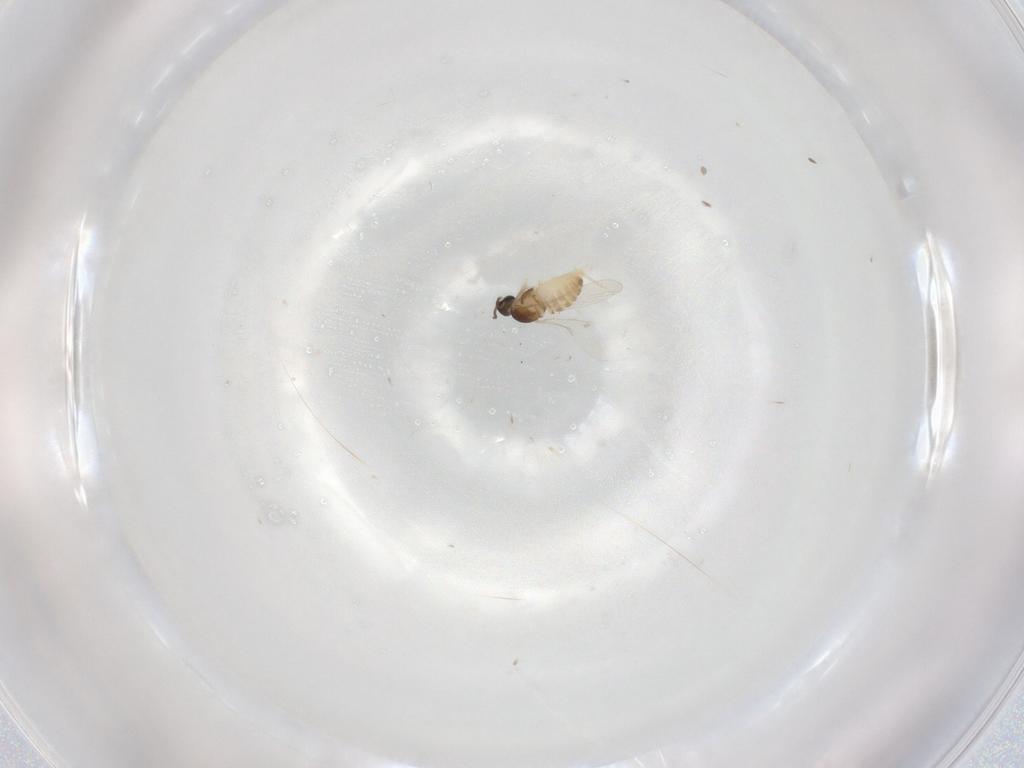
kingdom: Animalia
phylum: Arthropoda
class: Insecta
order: Diptera
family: Cecidomyiidae
